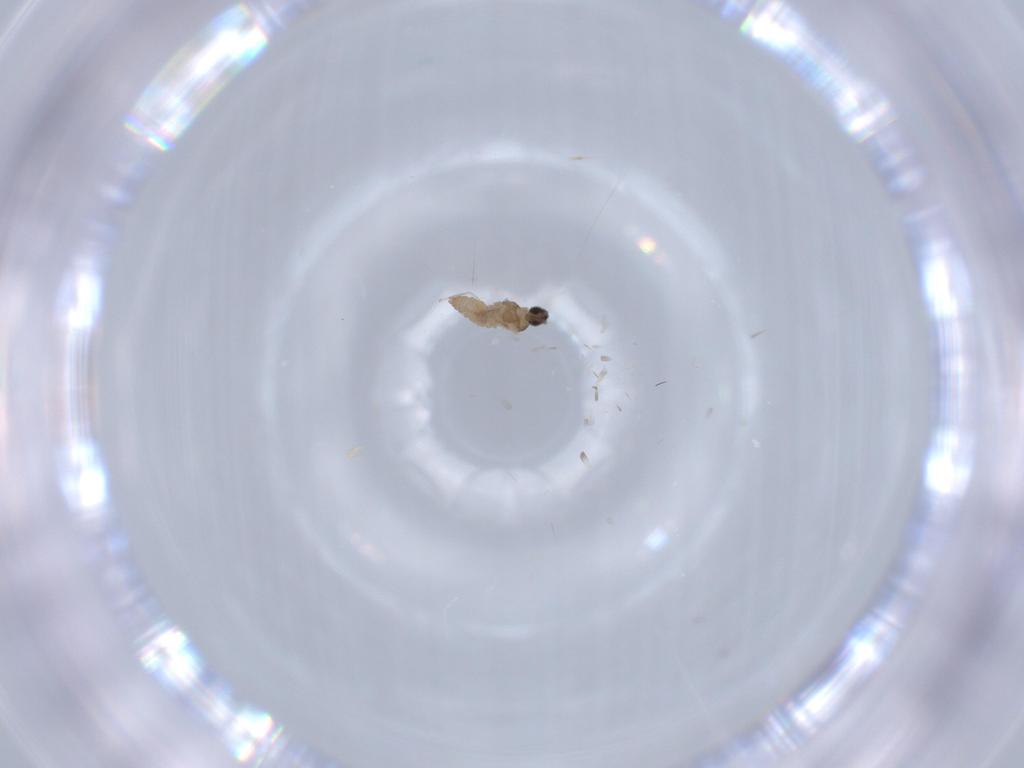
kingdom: Animalia
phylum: Arthropoda
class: Insecta
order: Diptera
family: Cecidomyiidae
